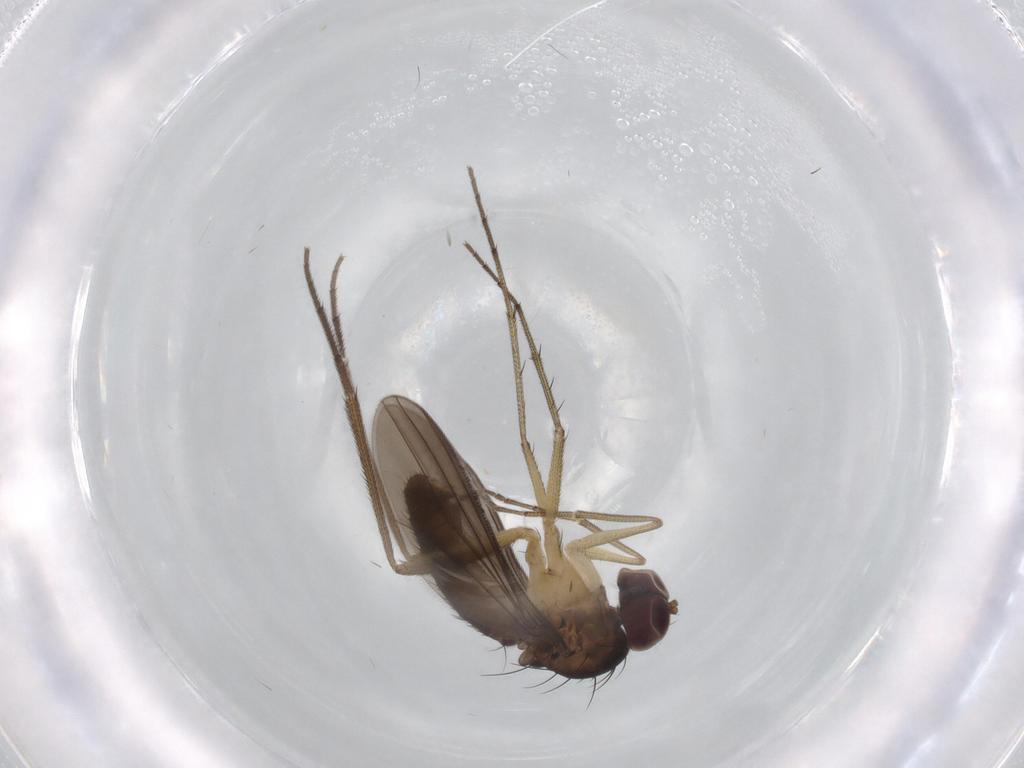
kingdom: Animalia
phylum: Arthropoda
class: Insecta
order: Diptera
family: Dolichopodidae
